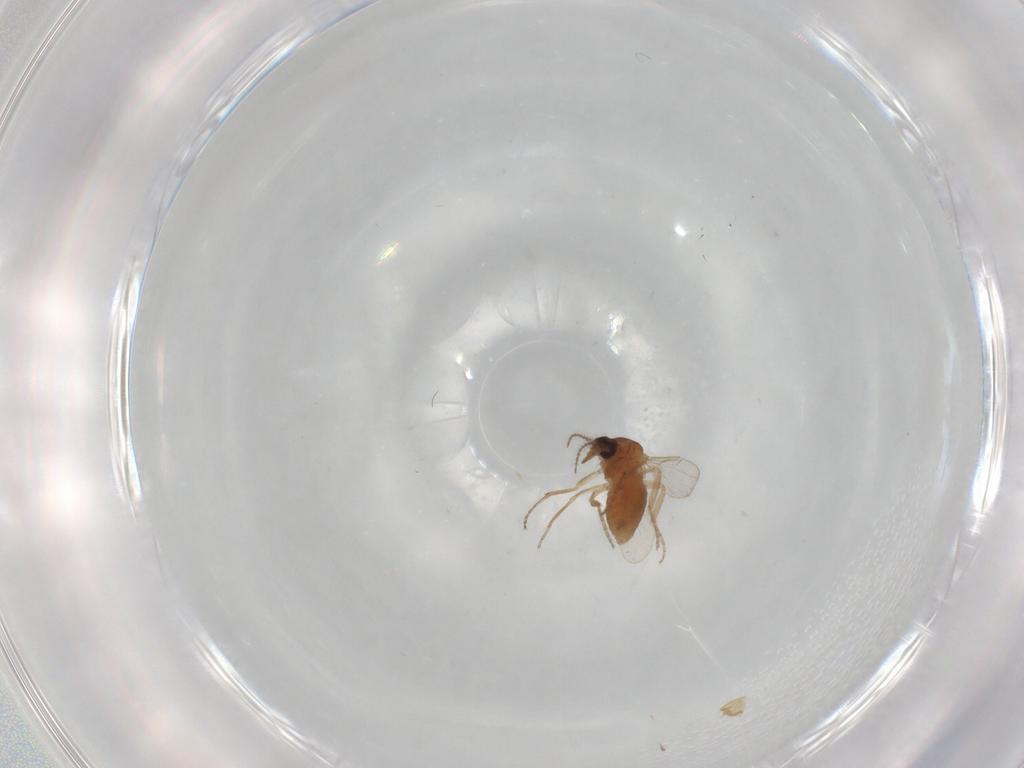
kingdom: Animalia
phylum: Arthropoda
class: Insecta
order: Diptera
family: Ceratopogonidae
